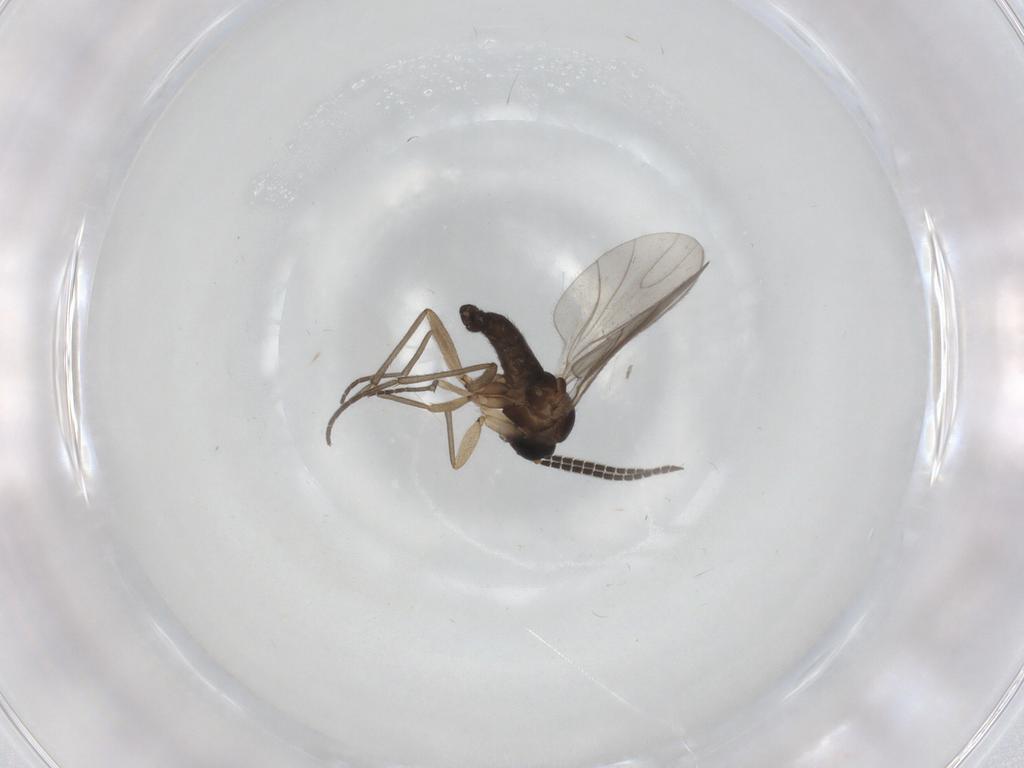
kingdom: Animalia
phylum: Arthropoda
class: Insecta
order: Diptera
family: Sciaridae
